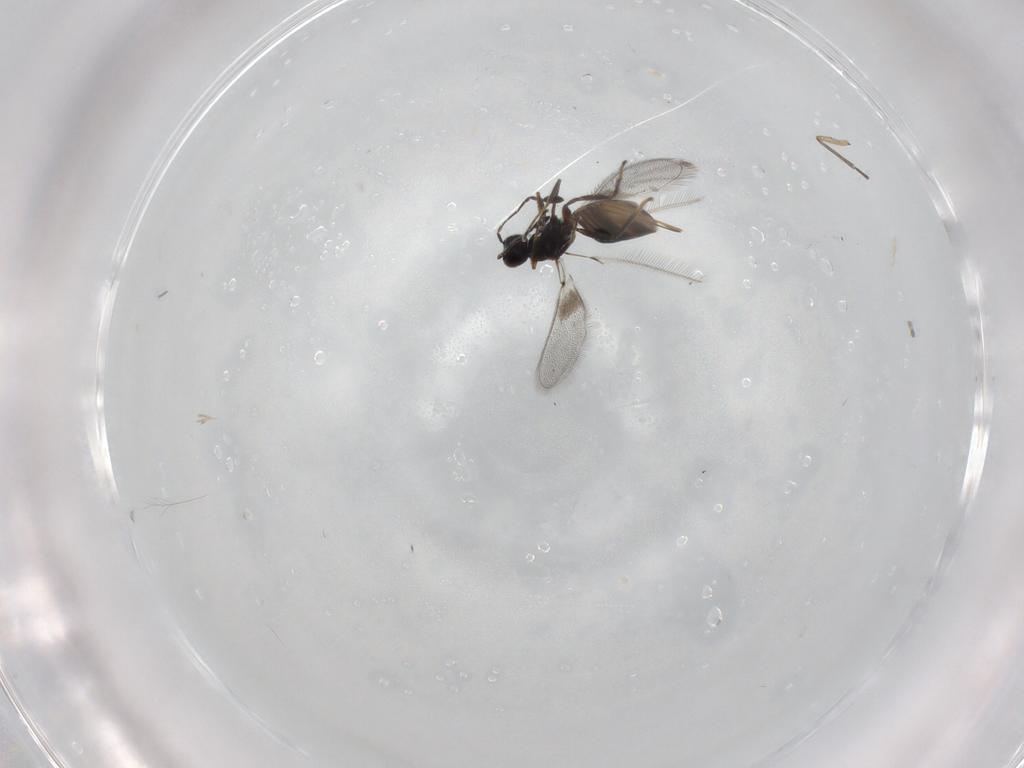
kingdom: Animalia
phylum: Arthropoda
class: Insecta
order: Hymenoptera
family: Mymaridae
